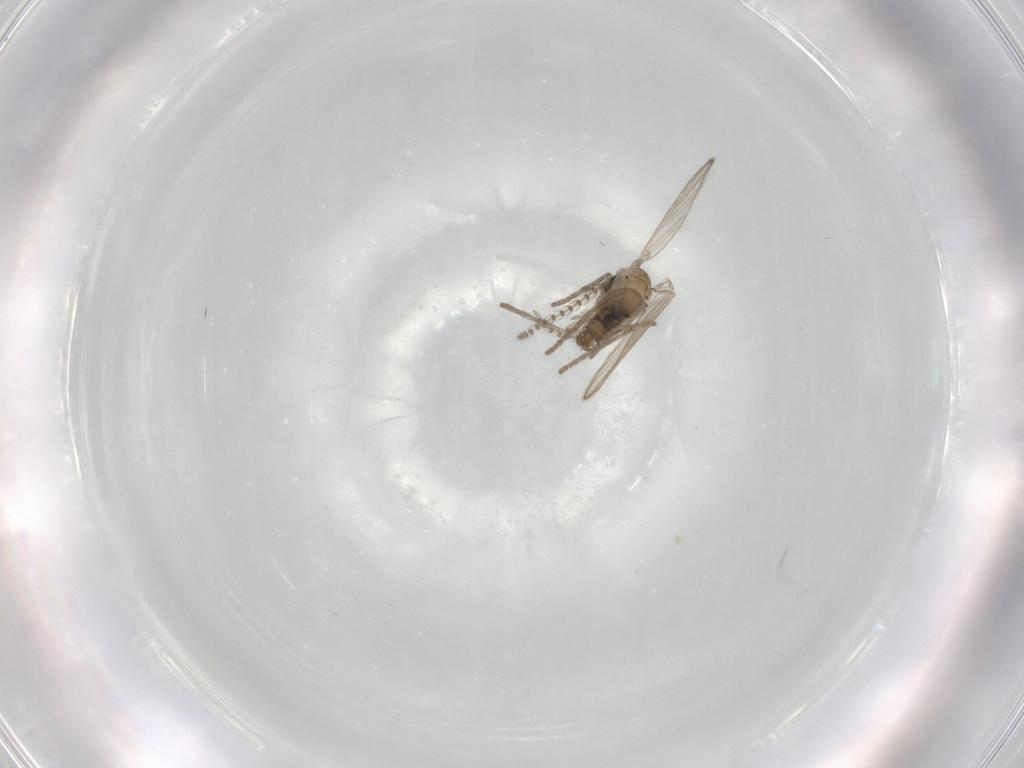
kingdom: Animalia
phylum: Arthropoda
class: Insecta
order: Diptera
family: Psychodidae
